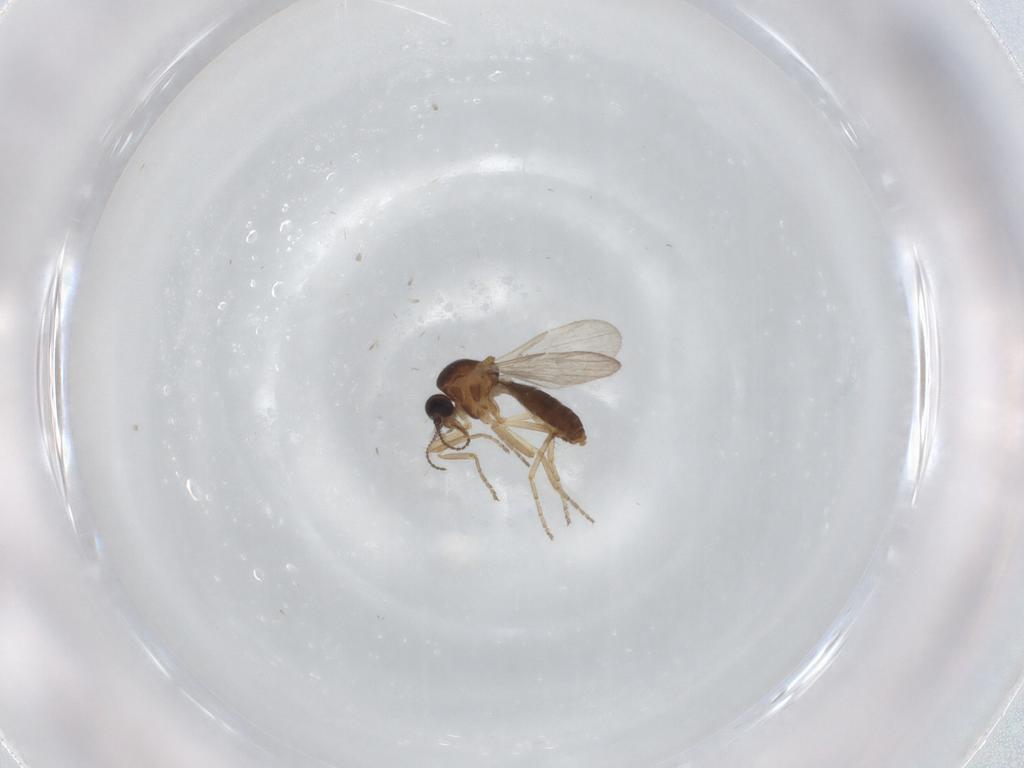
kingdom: Animalia
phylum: Arthropoda
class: Insecta
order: Diptera
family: Ceratopogonidae
